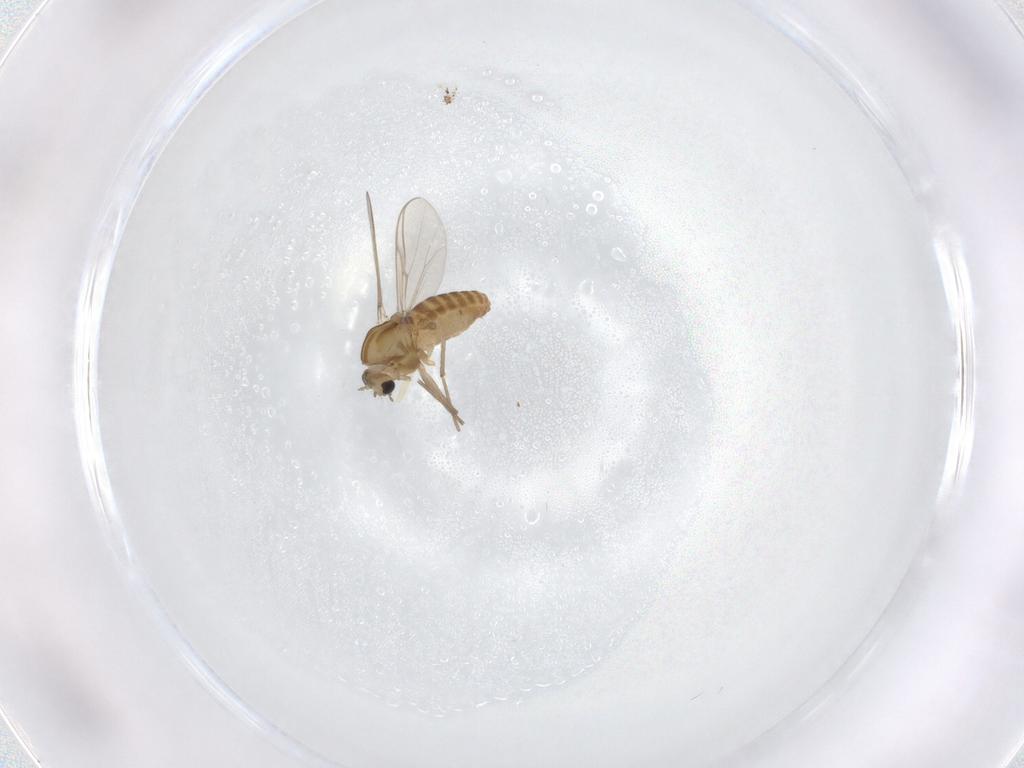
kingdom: Animalia
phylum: Arthropoda
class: Insecta
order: Diptera
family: Chironomidae
